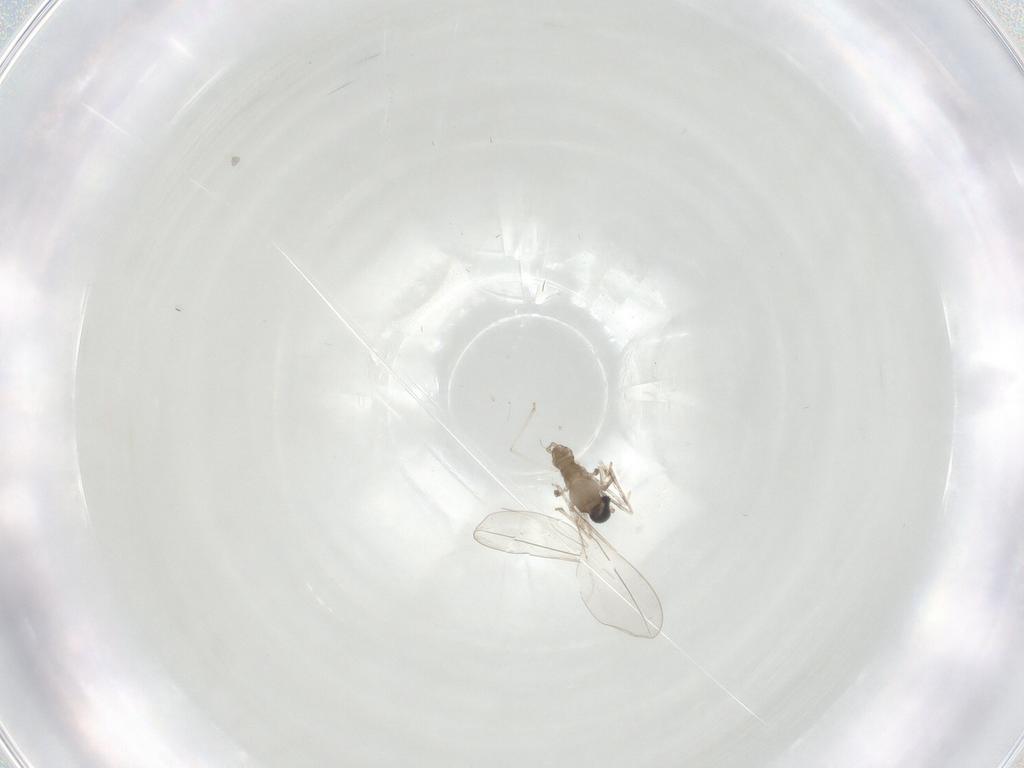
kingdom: Animalia
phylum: Arthropoda
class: Insecta
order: Diptera
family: Cecidomyiidae
